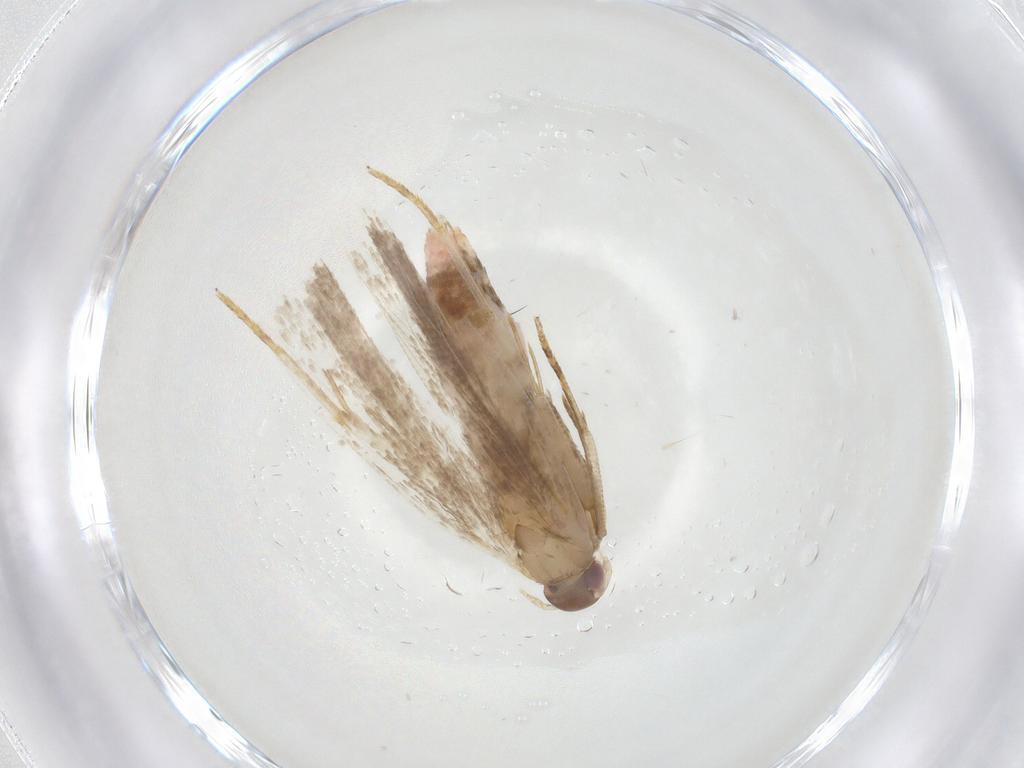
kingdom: Animalia
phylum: Arthropoda
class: Insecta
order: Lepidoptera
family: Gelechiidae
